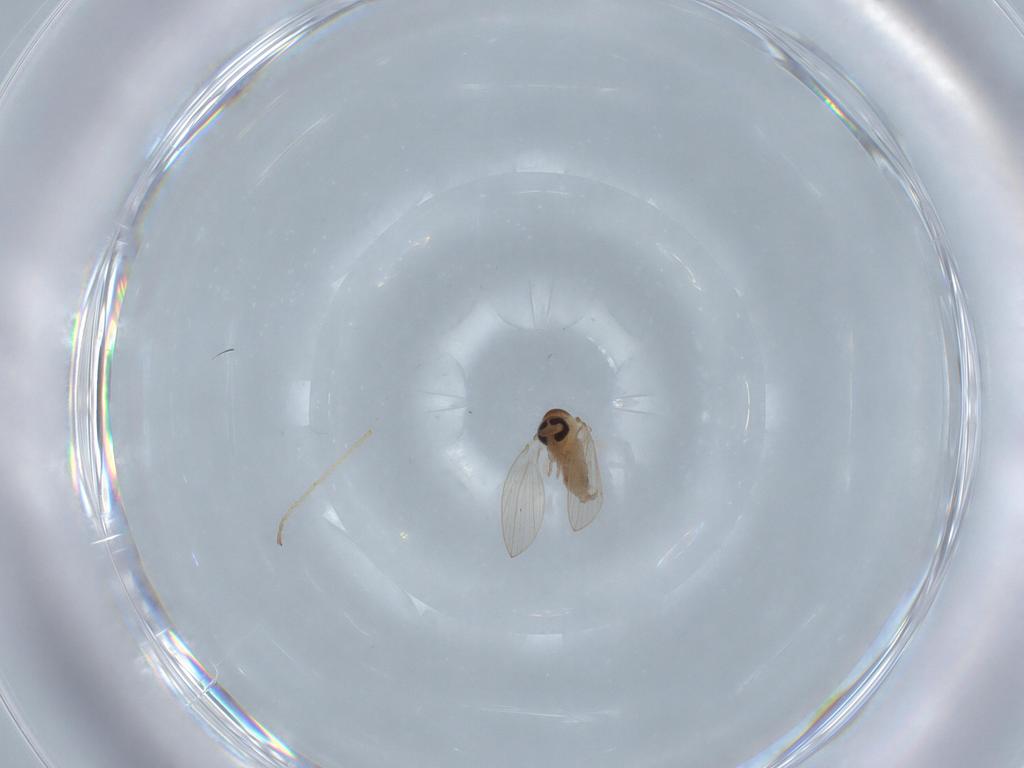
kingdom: Animalia
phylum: Arthropoda
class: Insecta
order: Diptera
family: Psychodidae
